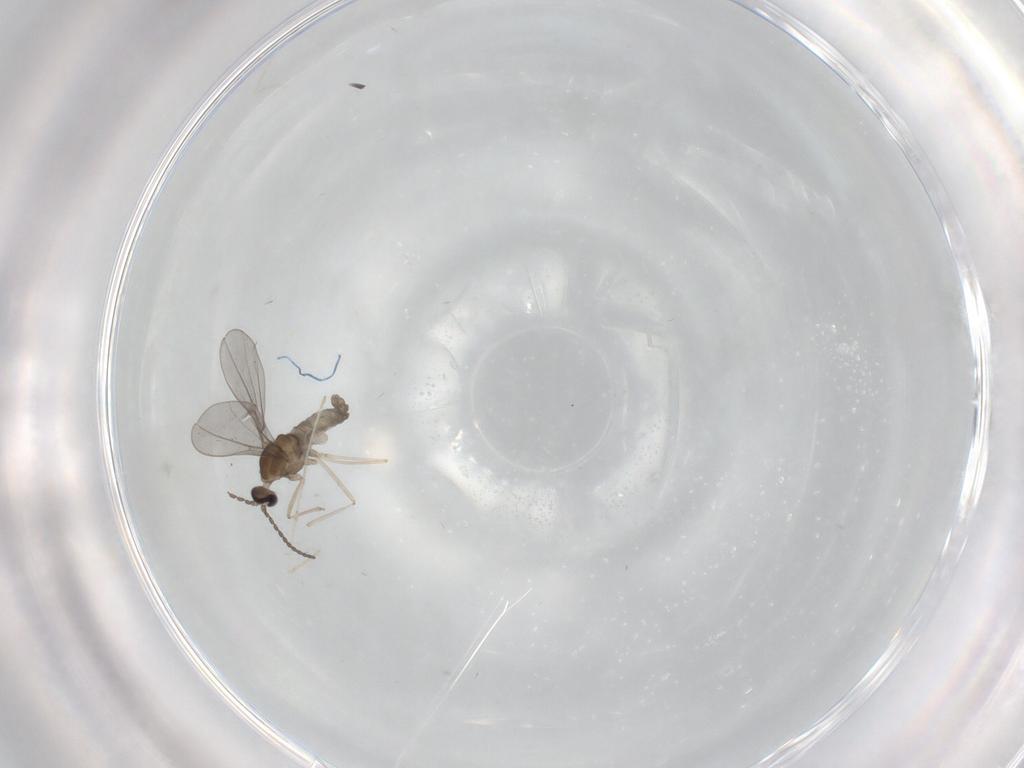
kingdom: Animalia
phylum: Arthropoda
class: Insecta
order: Diptera
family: Cecidomyiidae
